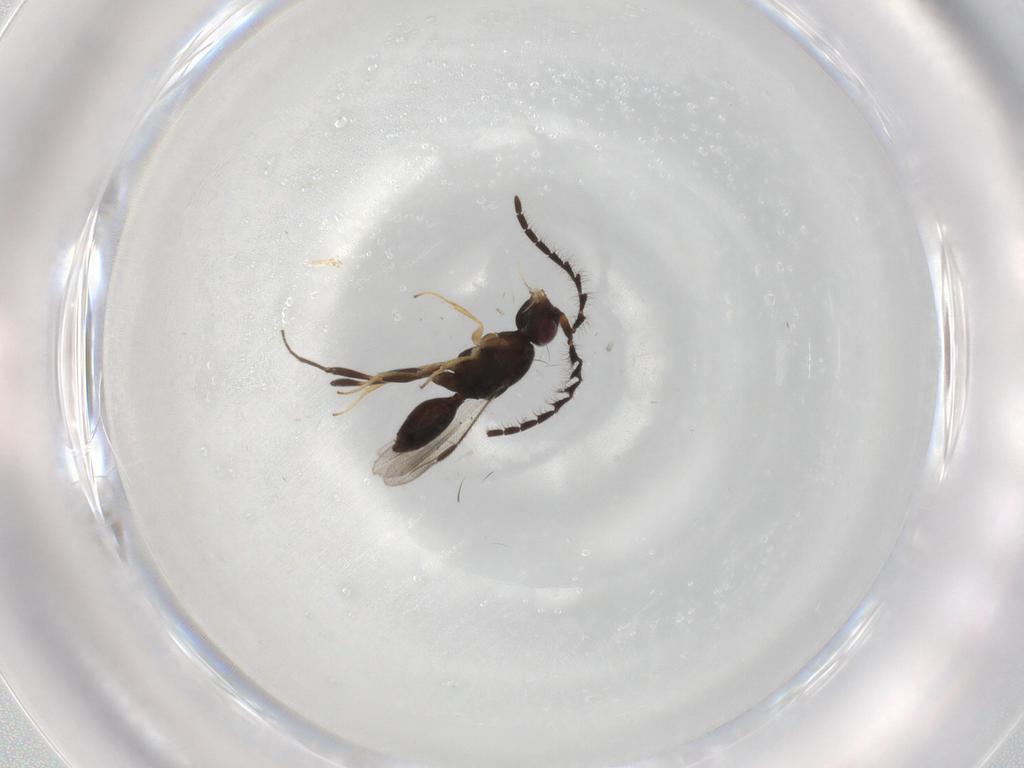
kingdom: Animalia
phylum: Arthropoda
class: Insecta
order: Hymenoptera
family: Megaspilidae
